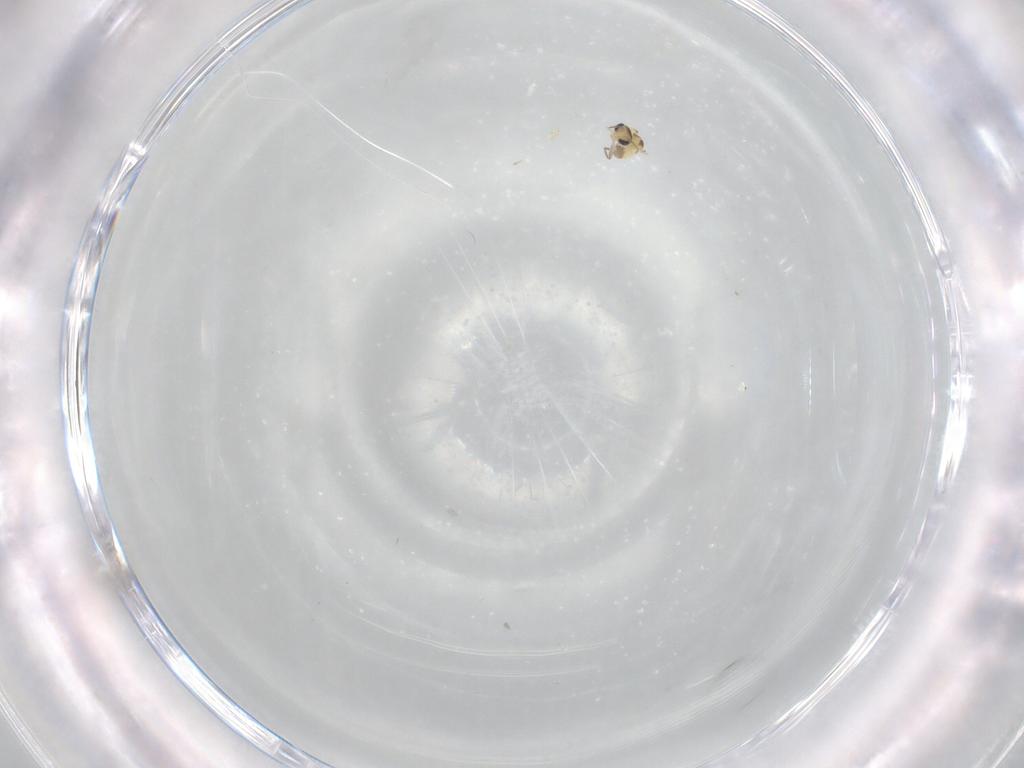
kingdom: Animalia
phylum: Arthropoda
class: Insecta
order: Diptera
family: Chironomidae
